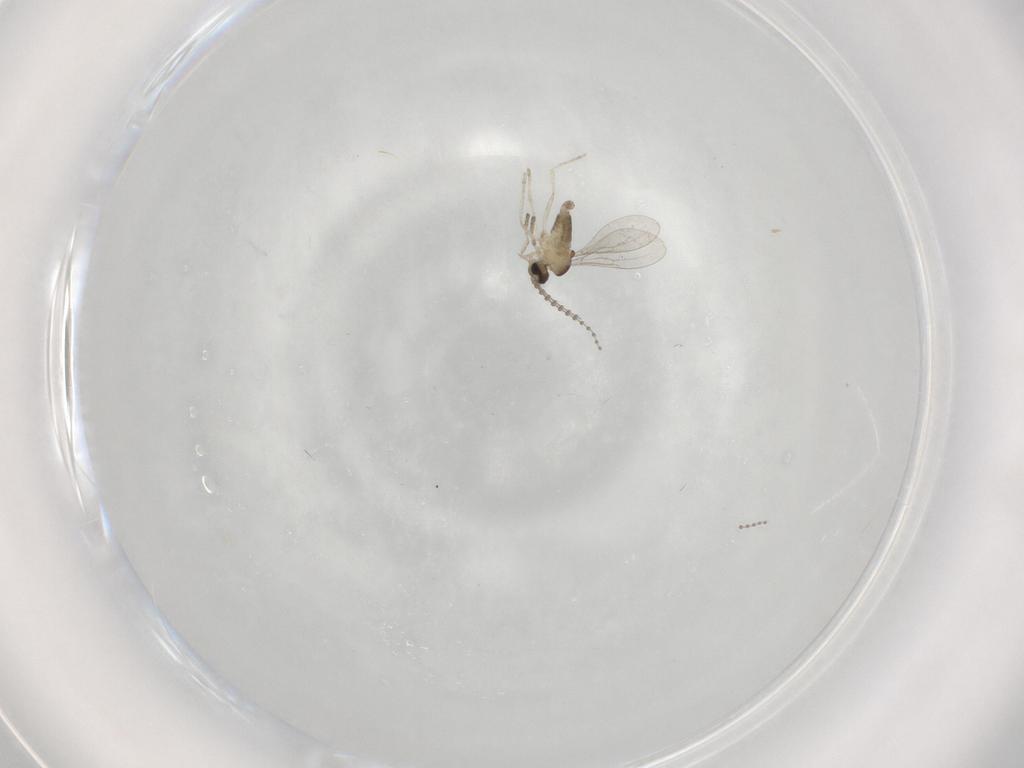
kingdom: Animalia
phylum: Arthropoda
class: Insecta
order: Diptera
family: Cecidomyiidae
